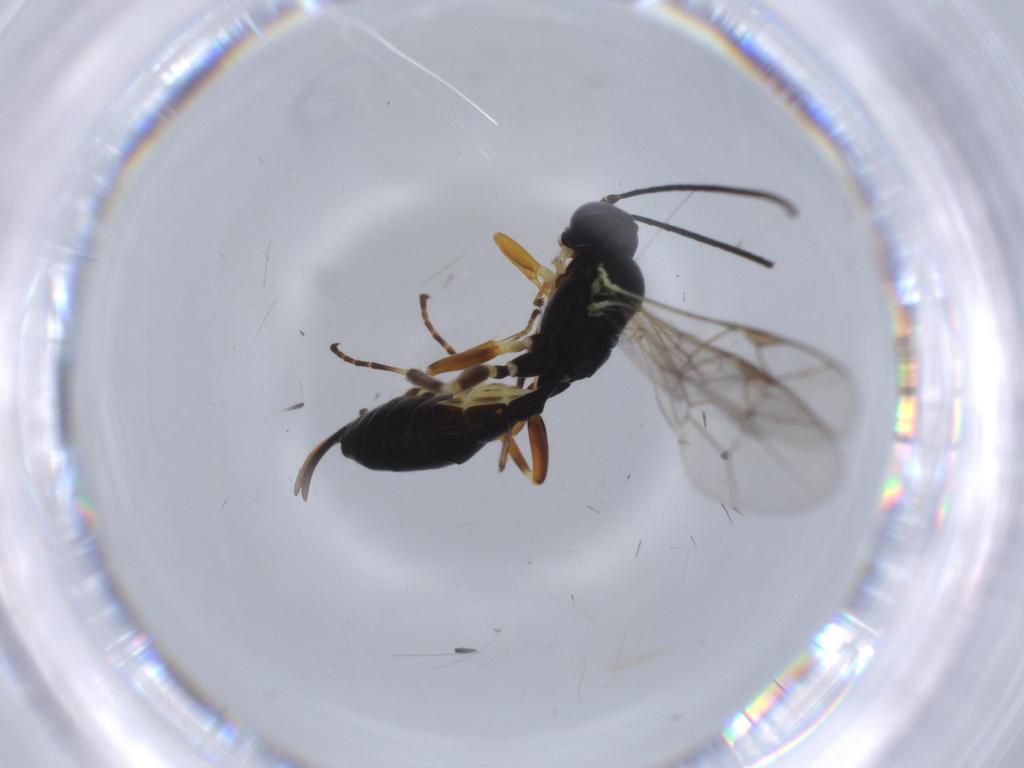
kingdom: Animalia
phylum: Arthropoda
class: Insecta
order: Hymenoptera
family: Ichneumonidae
